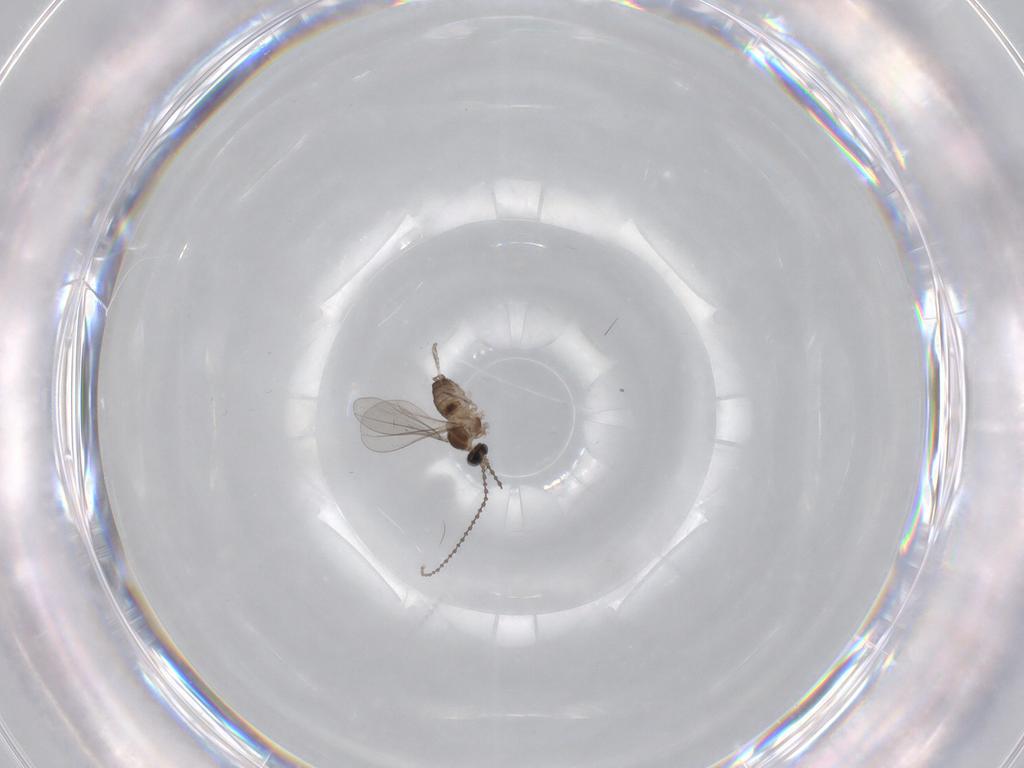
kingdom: Animalia
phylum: Arthropoda
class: Insecta
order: Diptera
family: Cecidomyiidae
